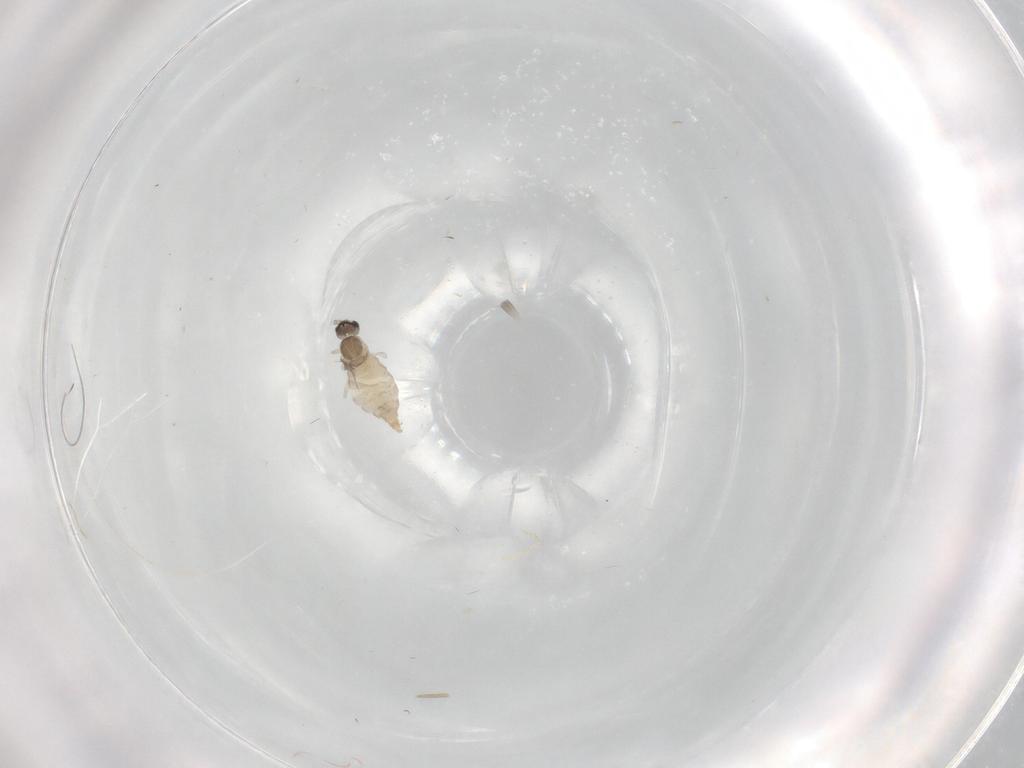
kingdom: Animalia
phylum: Arthropoda
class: Insecta
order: Diptera
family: Cecidomyiidae
